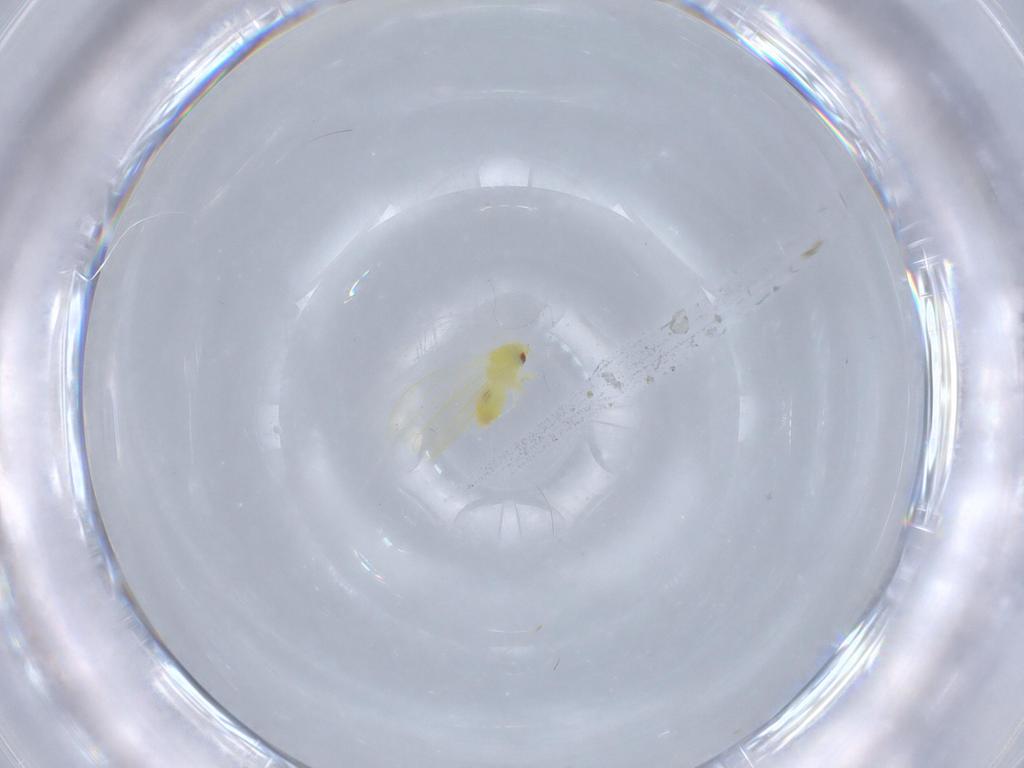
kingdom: Animalia
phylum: Arthropoda
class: Insecta
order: Hemiptera
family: Aleyrodidae
